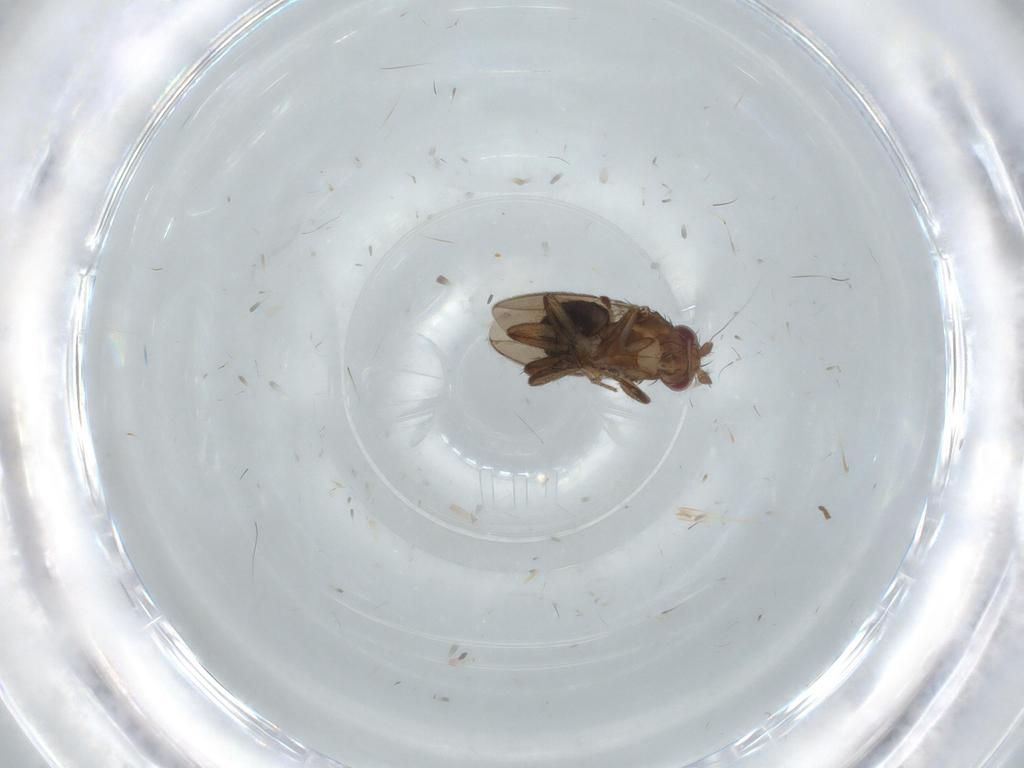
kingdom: Animalia
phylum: Arthropoda
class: Insecta
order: Diptera
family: Sphaeroceridae
